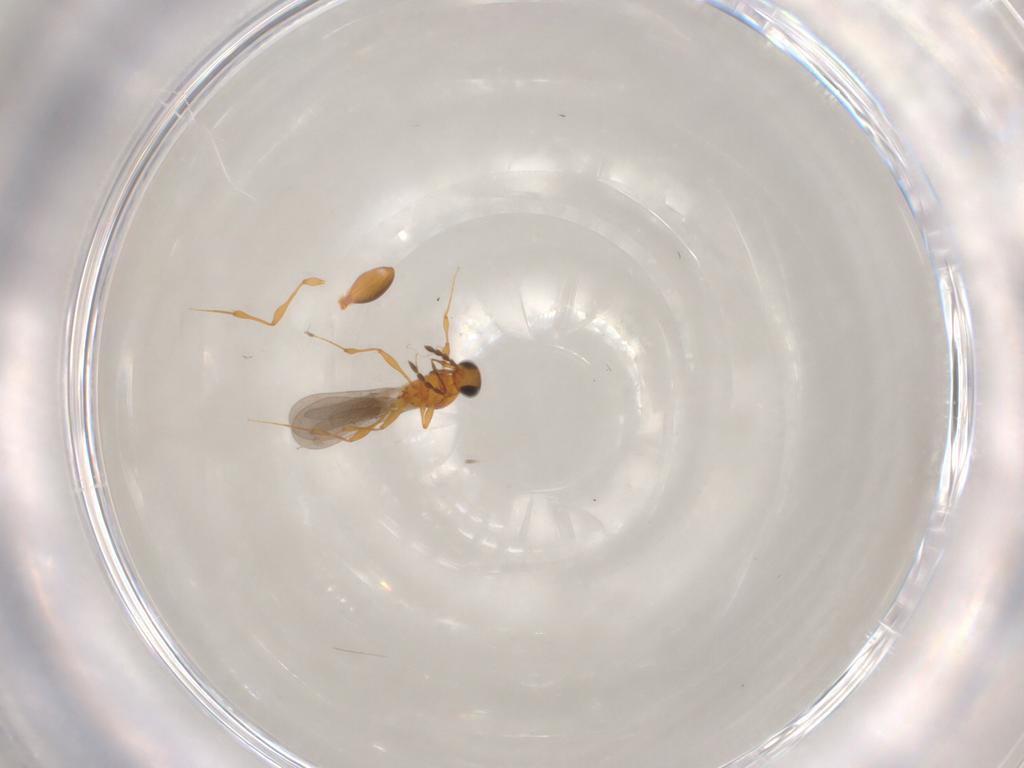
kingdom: Animalia
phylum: Arthropoda
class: Insecta
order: Hymenoptera
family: Platygastridae
